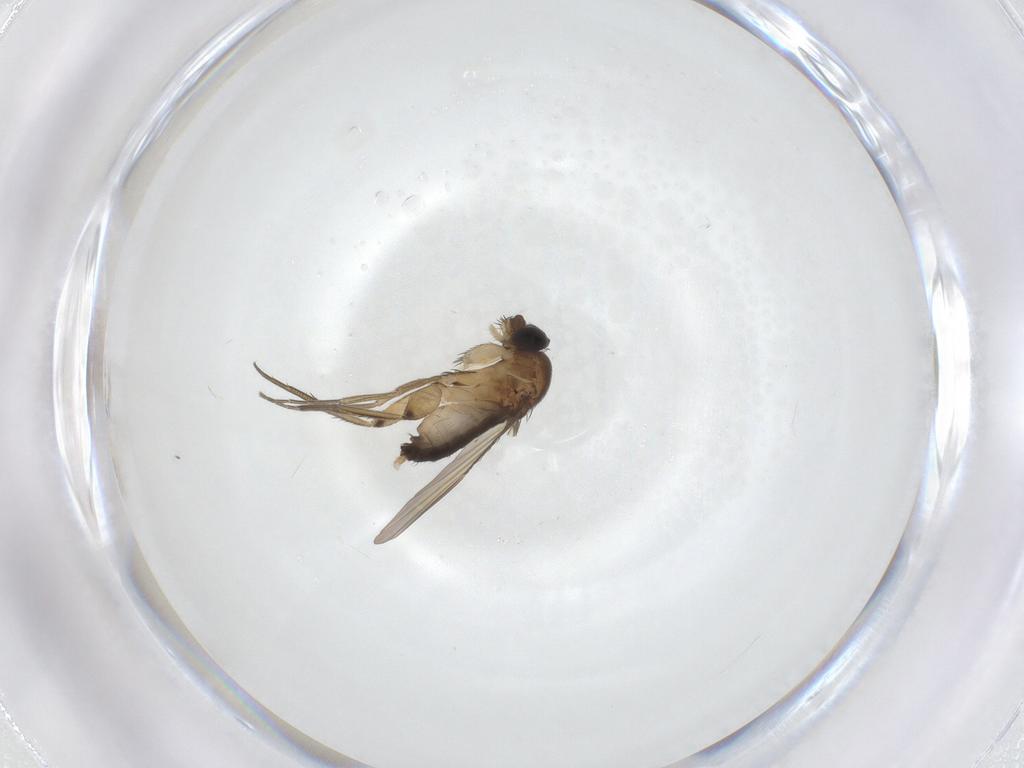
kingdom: Animalia
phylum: Arthropoda
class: Insecta
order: Diptera
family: Phoridae
